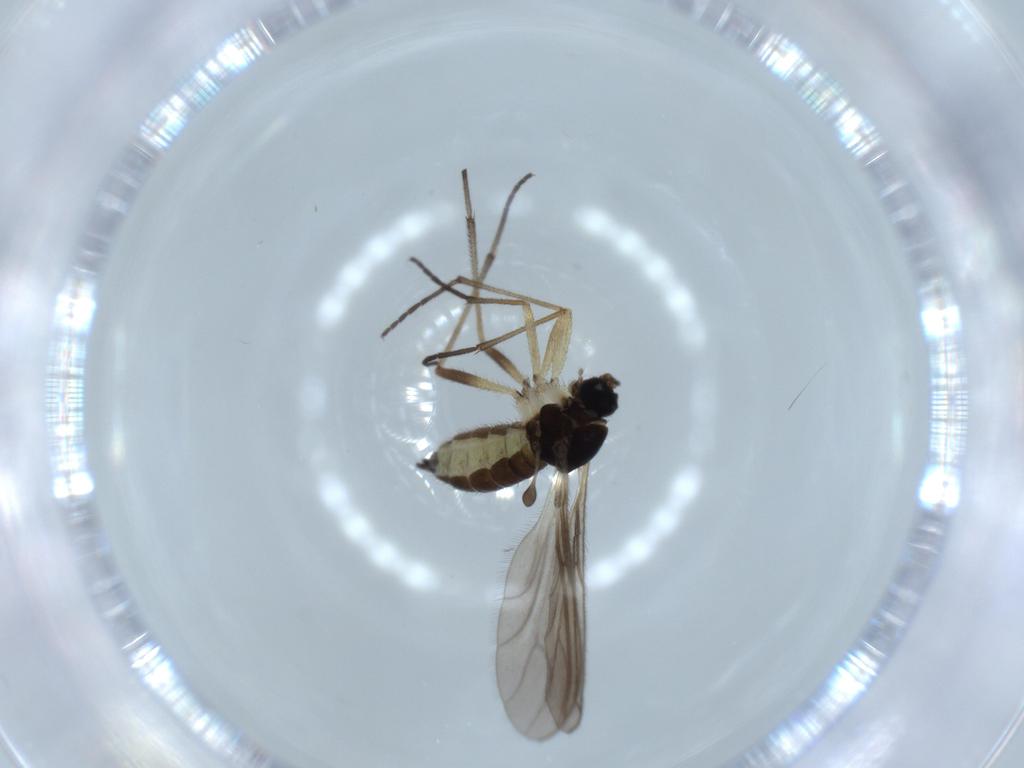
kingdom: Animalia
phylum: Arthropoda
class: Insecta
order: Diptera
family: Sciaridae
